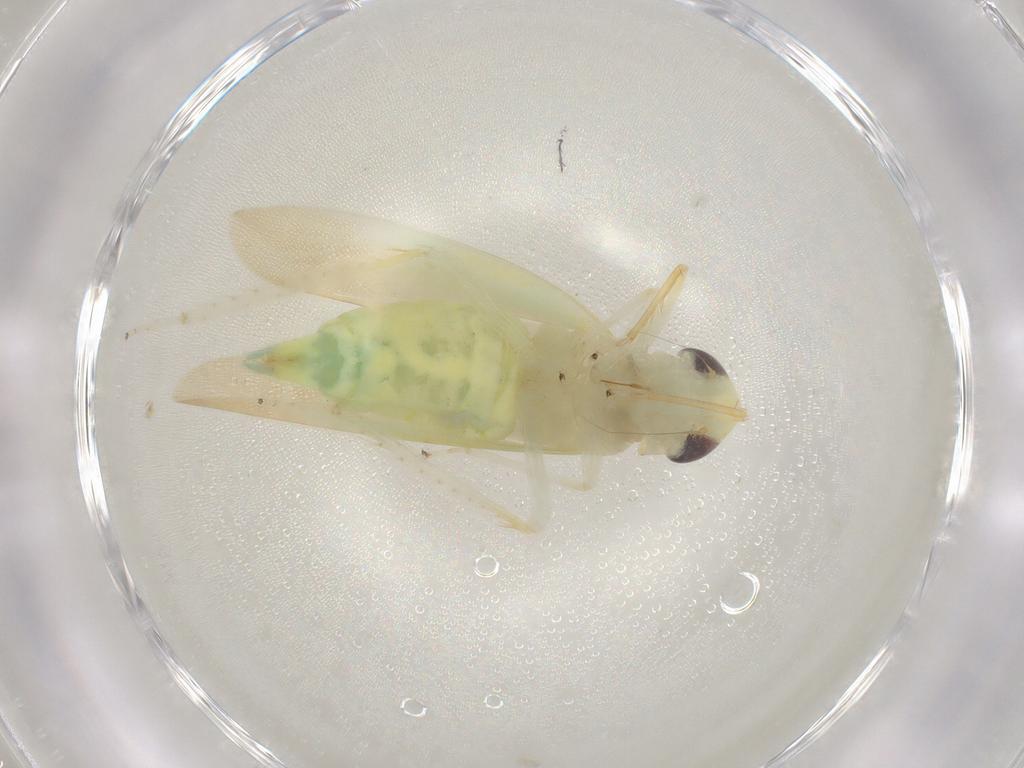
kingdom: Animalia
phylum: Arthropoda
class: Insecta
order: Hemiptera
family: Cicadellidae
